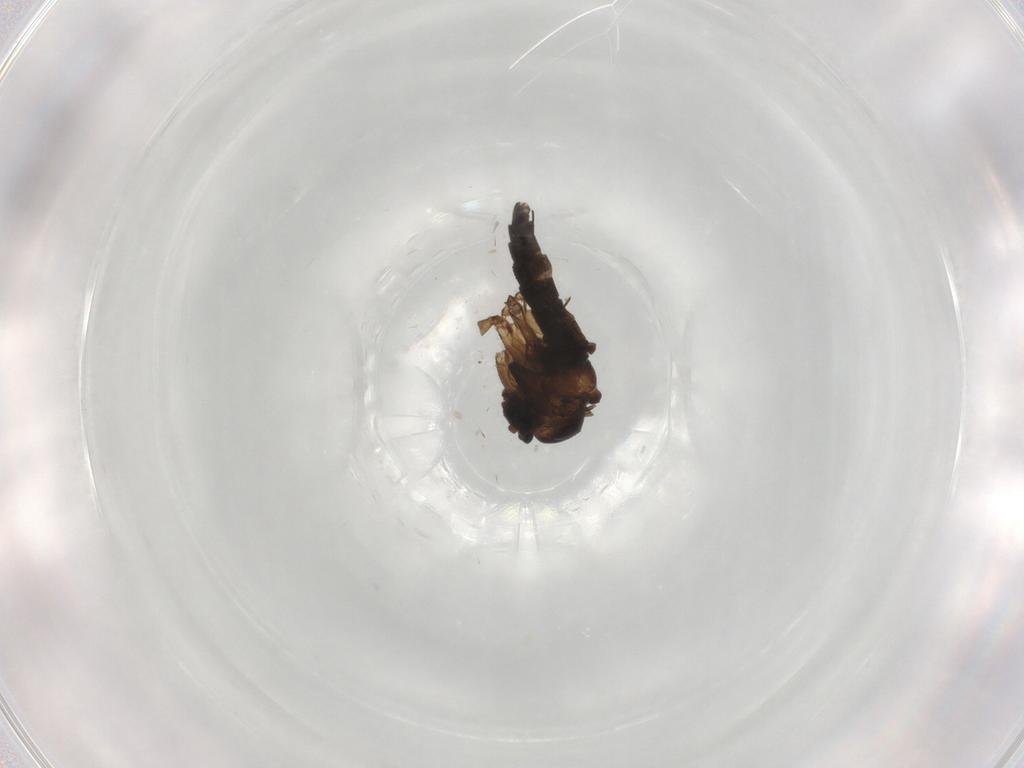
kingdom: Animalia
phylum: Arthropoda
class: Insecta
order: Diptera
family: Sciaridae
